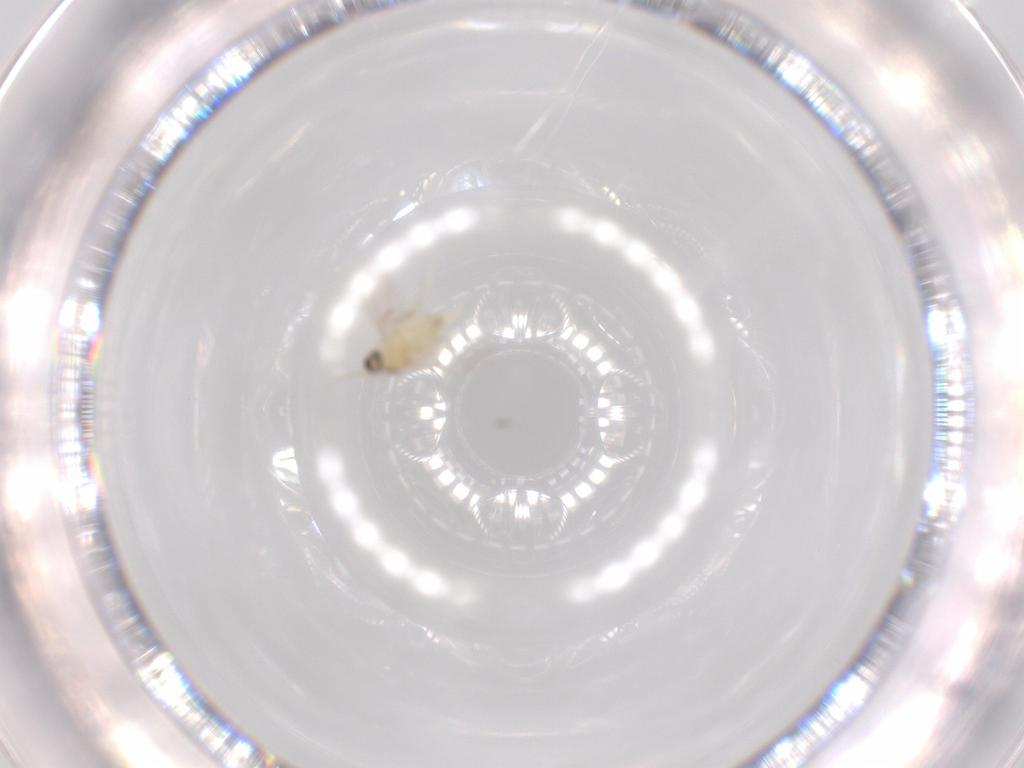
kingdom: Animalia
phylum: Arthropoda
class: Insecta
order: Diptera
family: Cecidomyiidae
